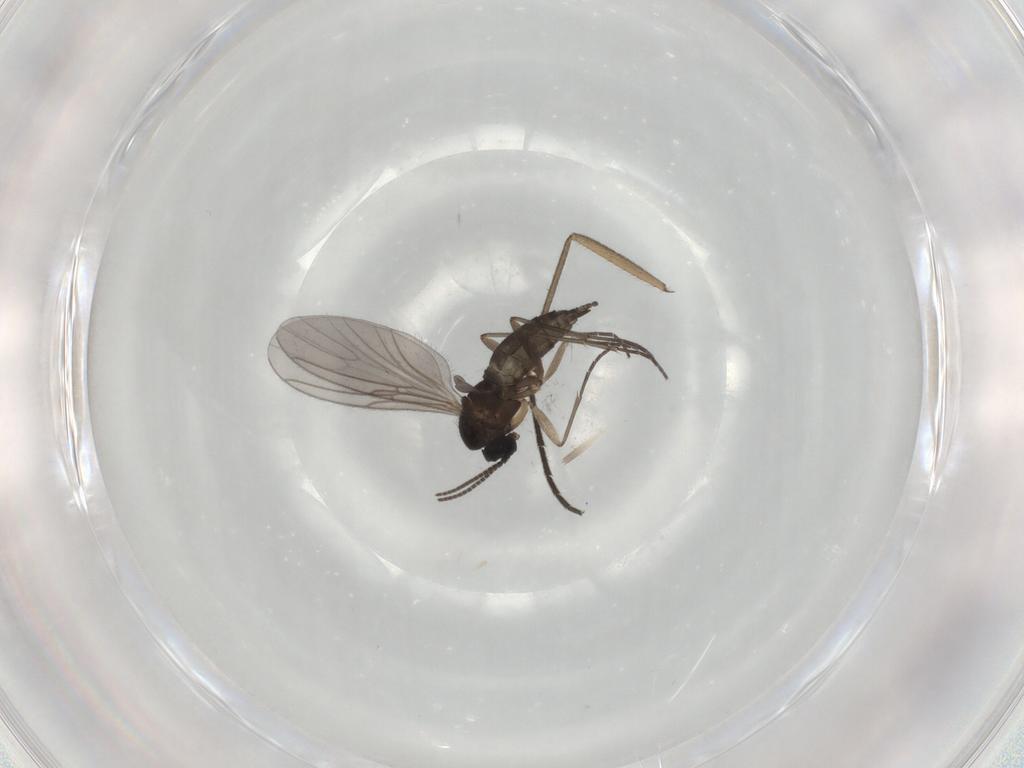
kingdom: Animalia
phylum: Arthropoda
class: Insecta
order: Diptera
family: Sciaridae
